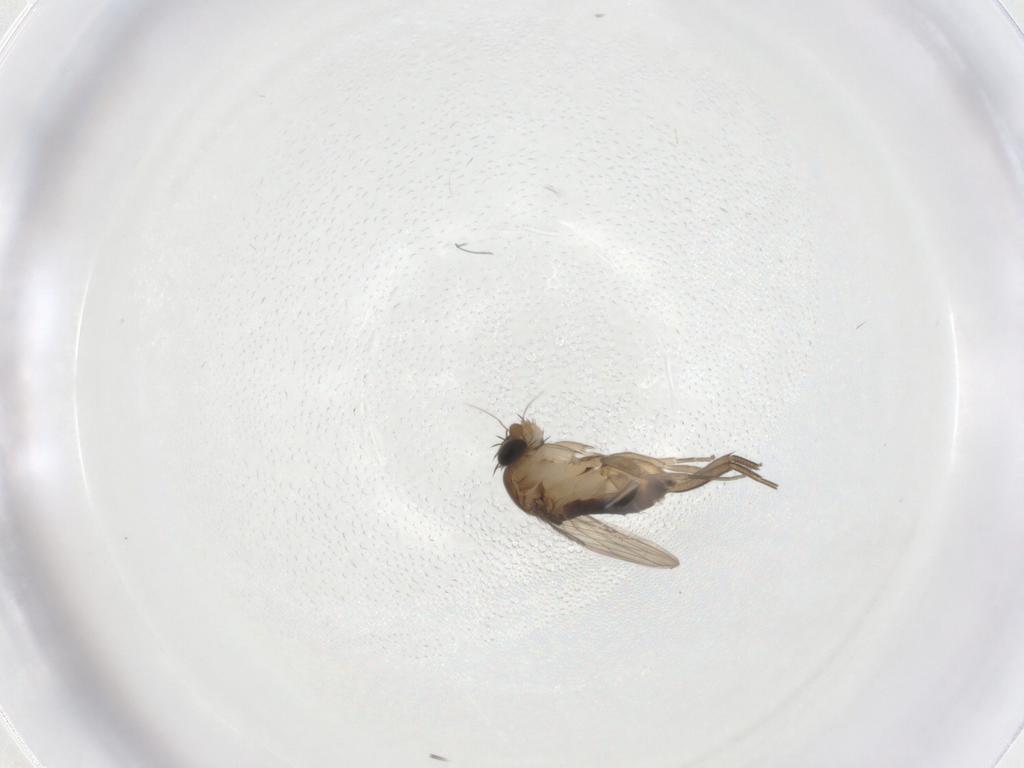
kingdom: Animalia
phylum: Arthropoda
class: Insecta
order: Diptera
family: Phoridae
